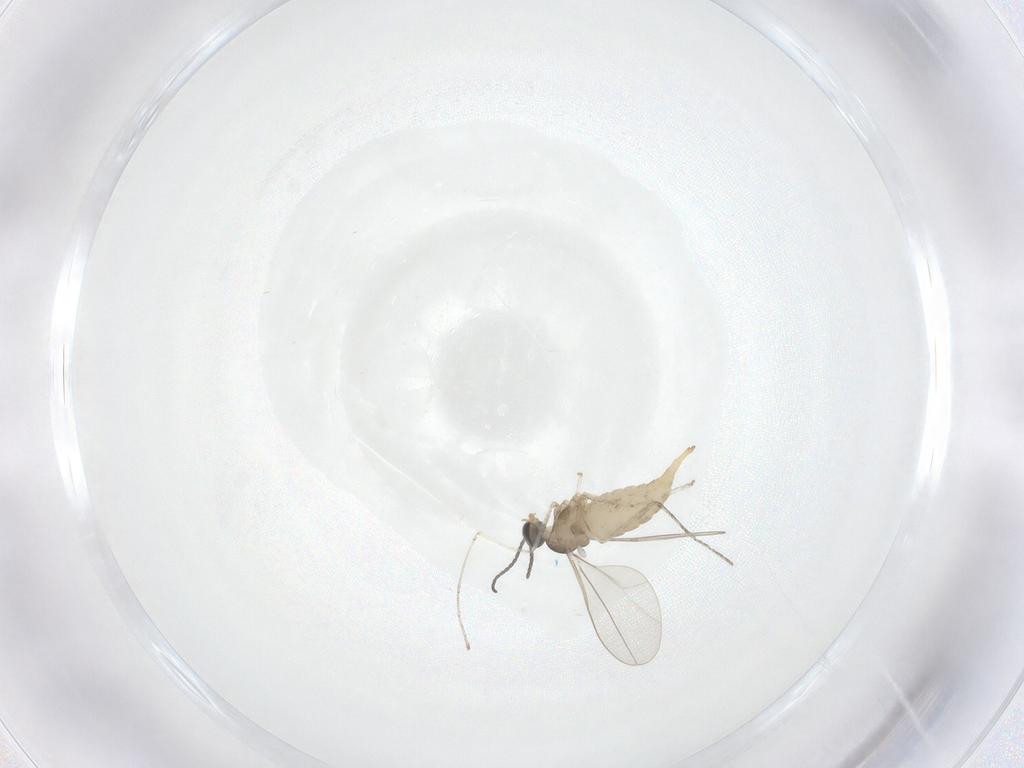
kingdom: Animalia
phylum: Arthropoda
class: Insecta
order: Diptera
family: Cecidomyiidae
